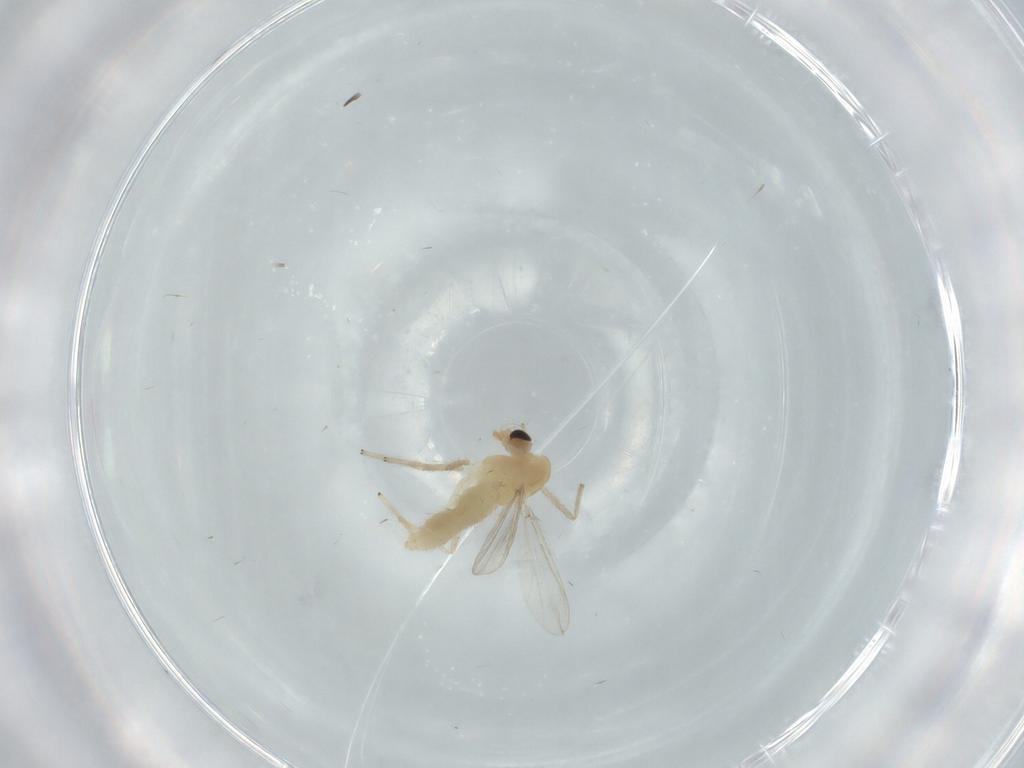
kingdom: Animalia
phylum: Arthropoda
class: Insecta
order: Diptera
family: Chironomidae
